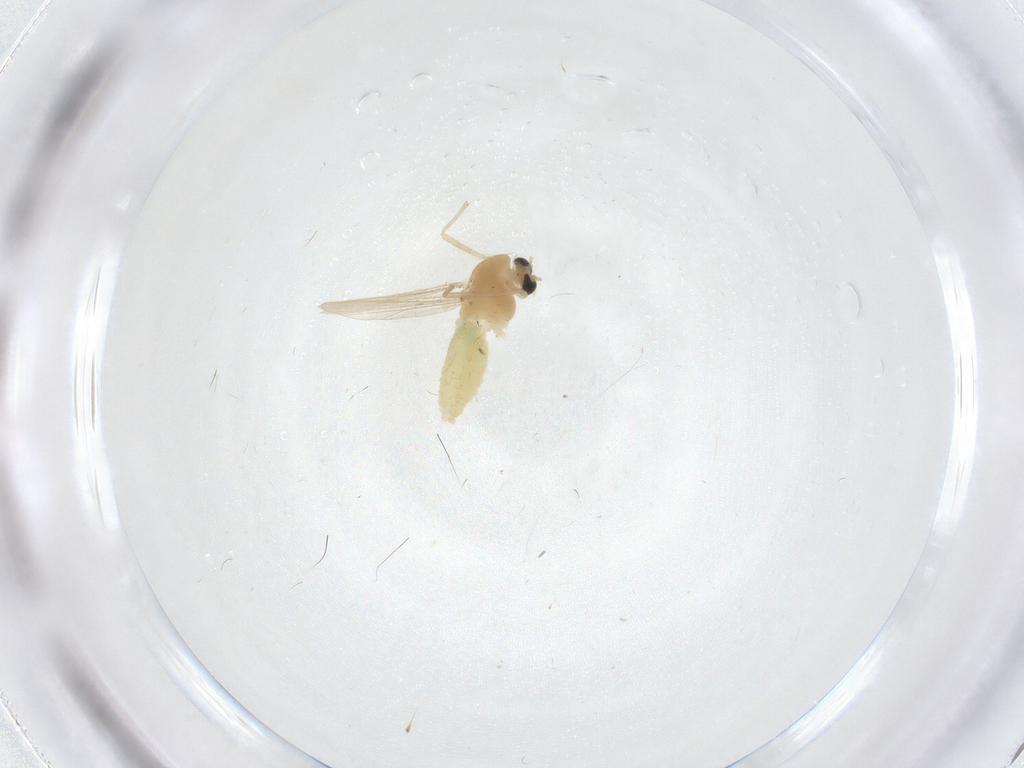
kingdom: Animalia
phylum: Arthropoda
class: Insecta
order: Diptera
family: Chironomidae
